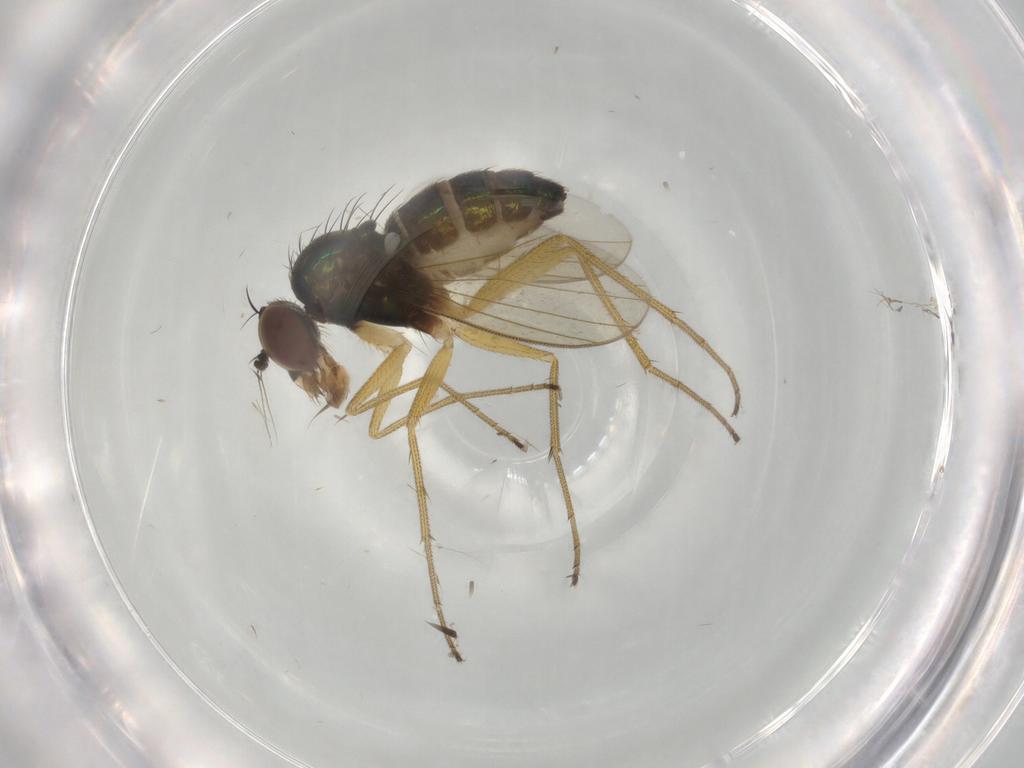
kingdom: Animalia
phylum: Arthropoda
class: Insecta
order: Diptera
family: Dolichopodidae
